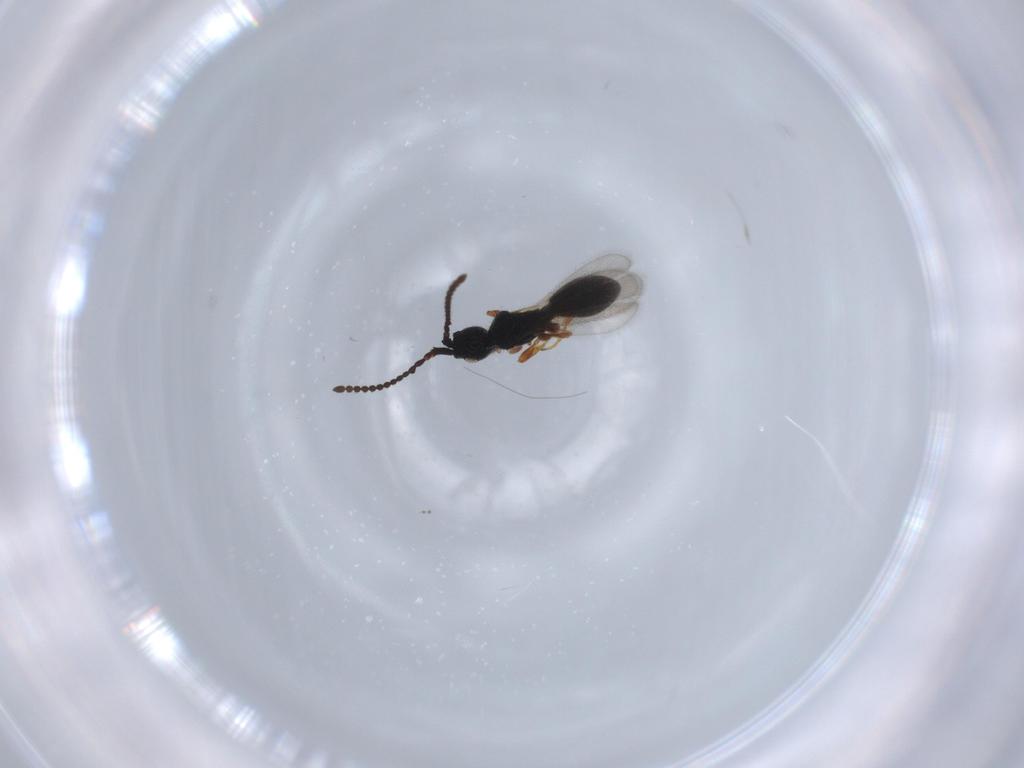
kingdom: Animalia
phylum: Arthropoda
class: Insecta
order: Hymenoptera
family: Diapriidae
